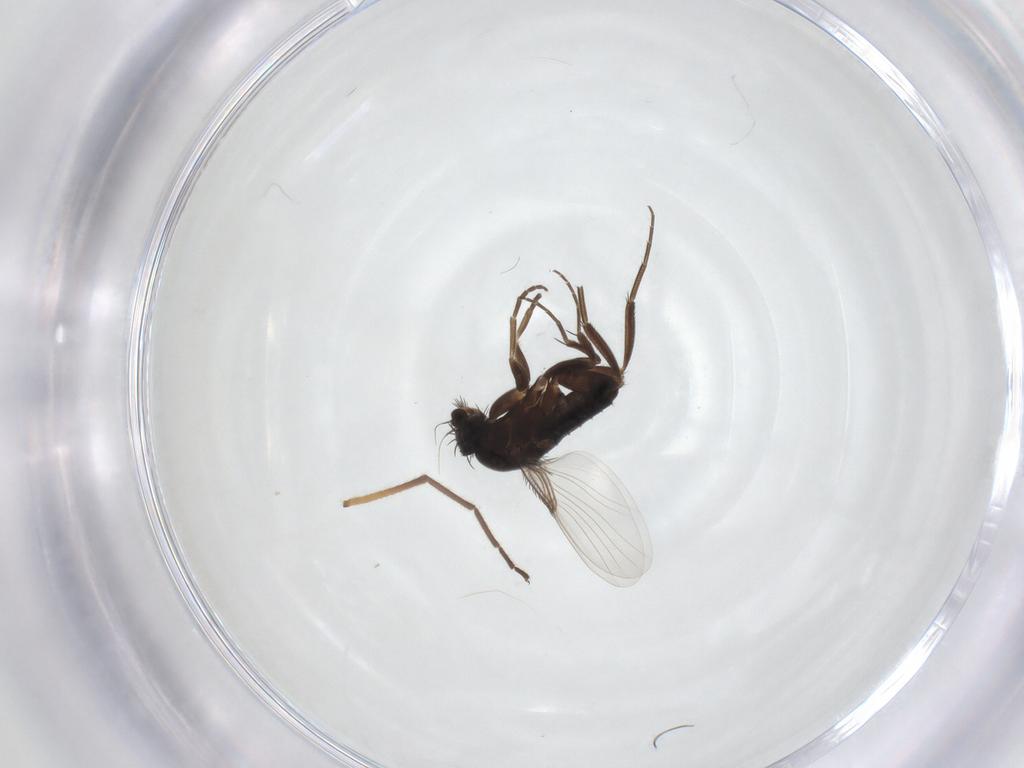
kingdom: Animalia
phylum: Arthropoda
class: Insecta
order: Diptera
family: Phoridae
